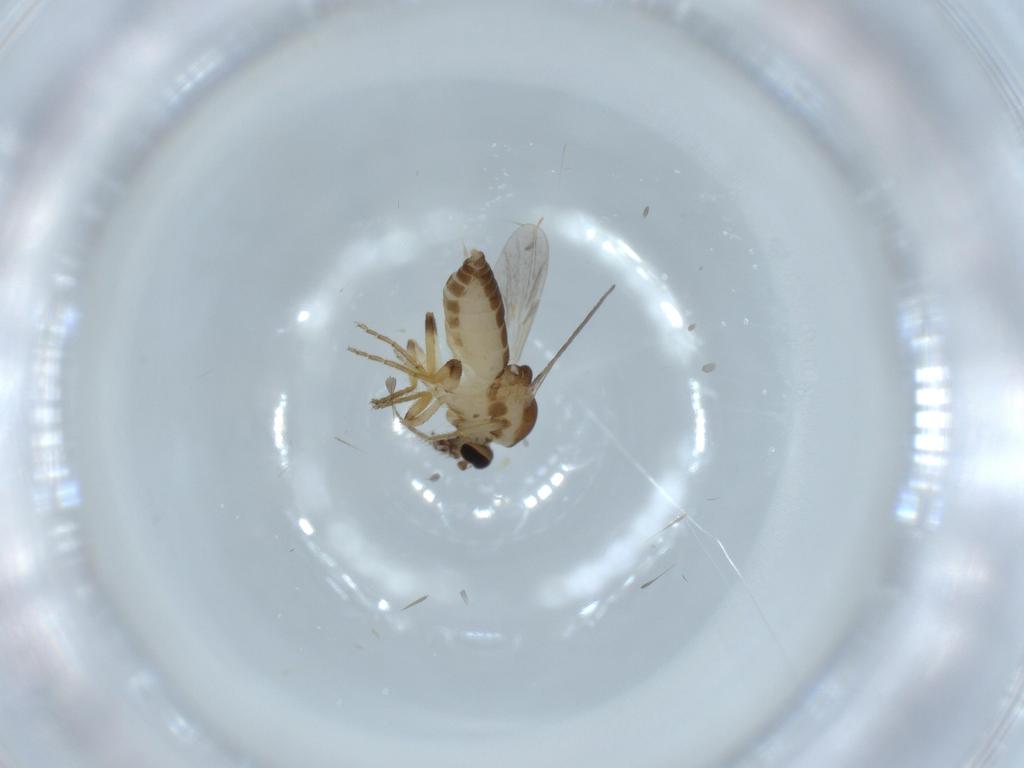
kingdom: Animalia
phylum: Arthropoda
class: Insecta
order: Diptera
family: Ceratopogonidae
